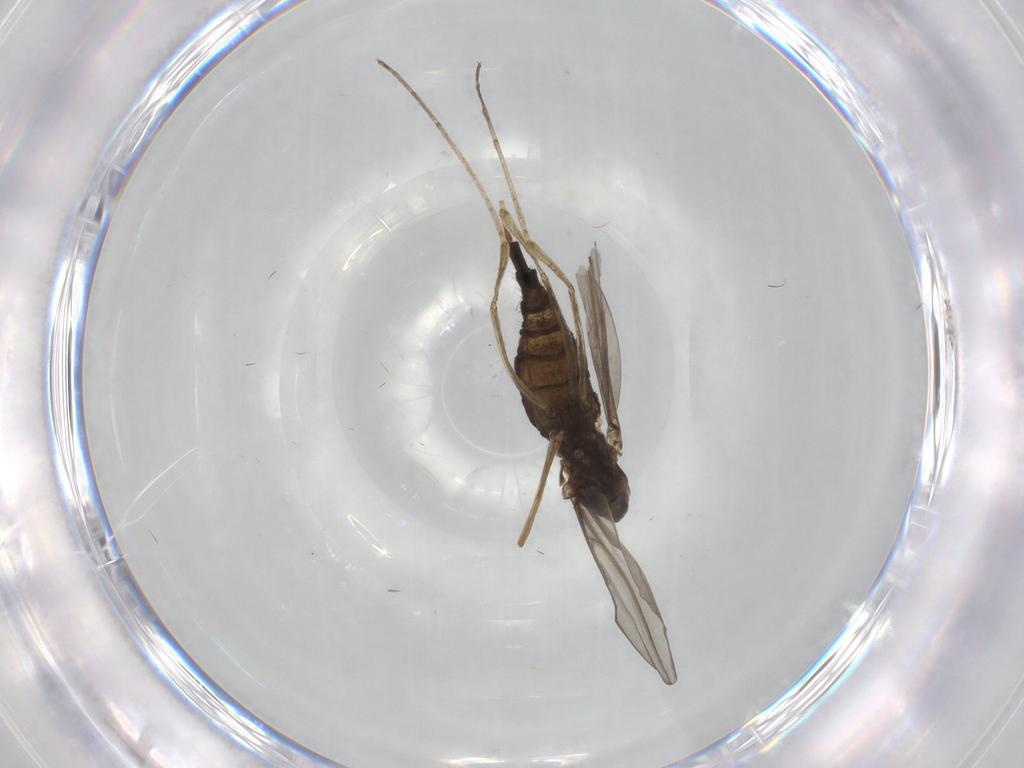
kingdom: Animalia
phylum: Arthropoda
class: Insecta
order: Diptera
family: Cecidomyiidae
